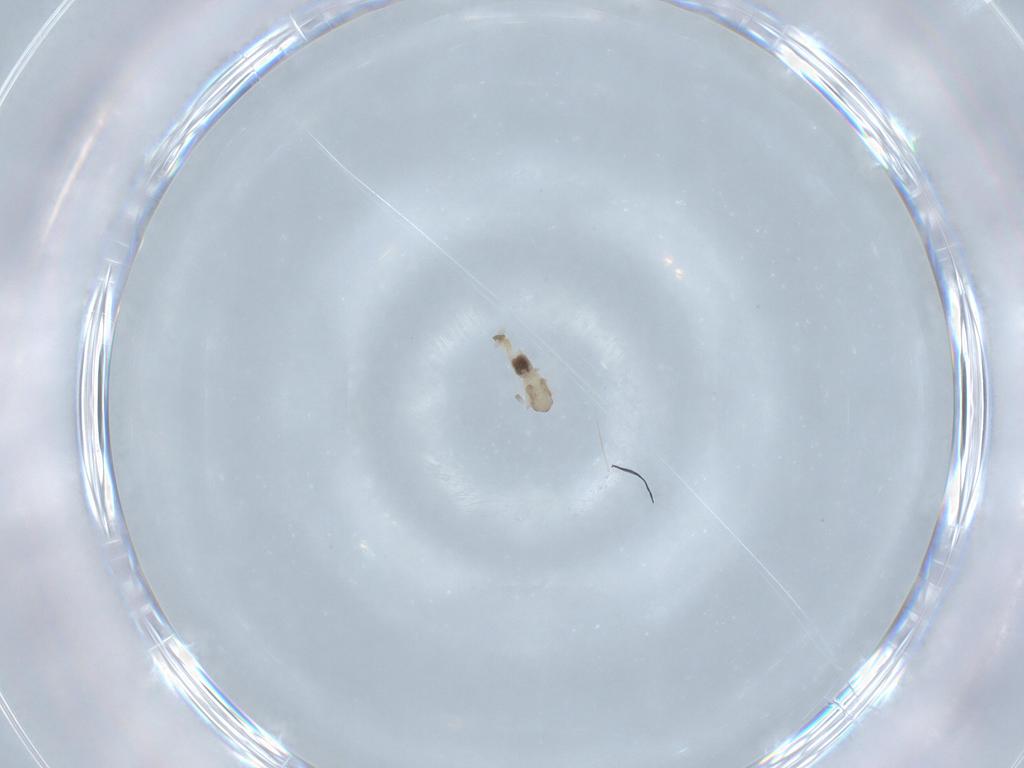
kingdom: Animalia
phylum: Arthropoda
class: Insecta
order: Diptera
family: Cecidomyiidae
